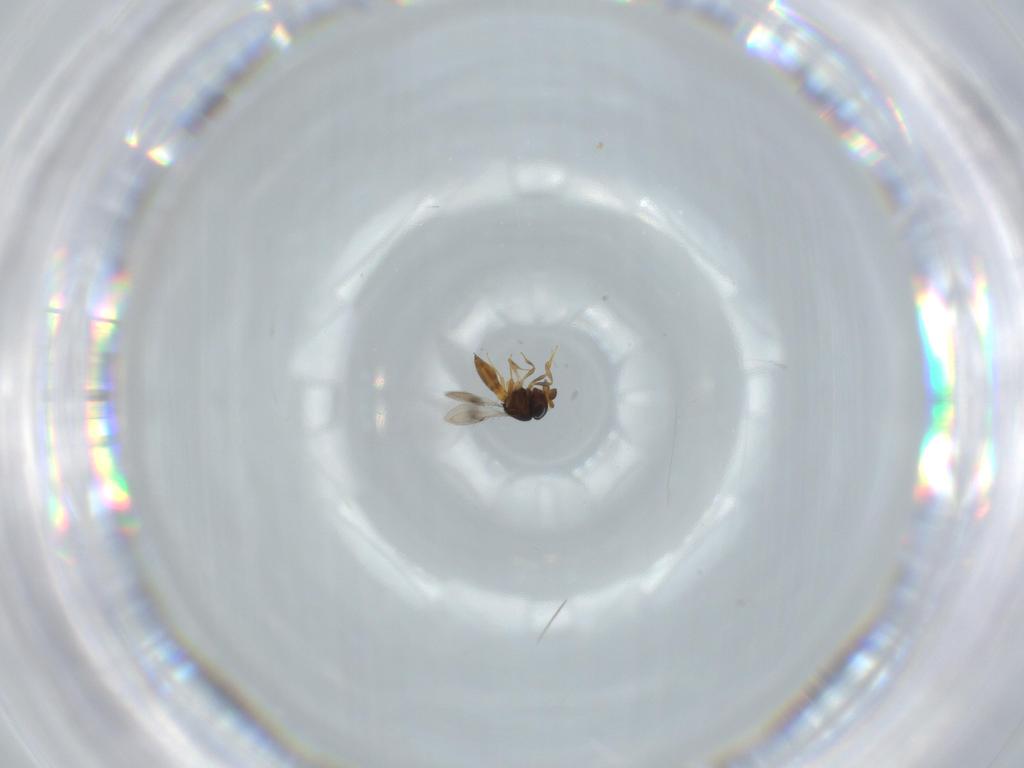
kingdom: Animalia
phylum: Arthropoda
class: Insecta
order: Hymenoptera
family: Scelionidae
